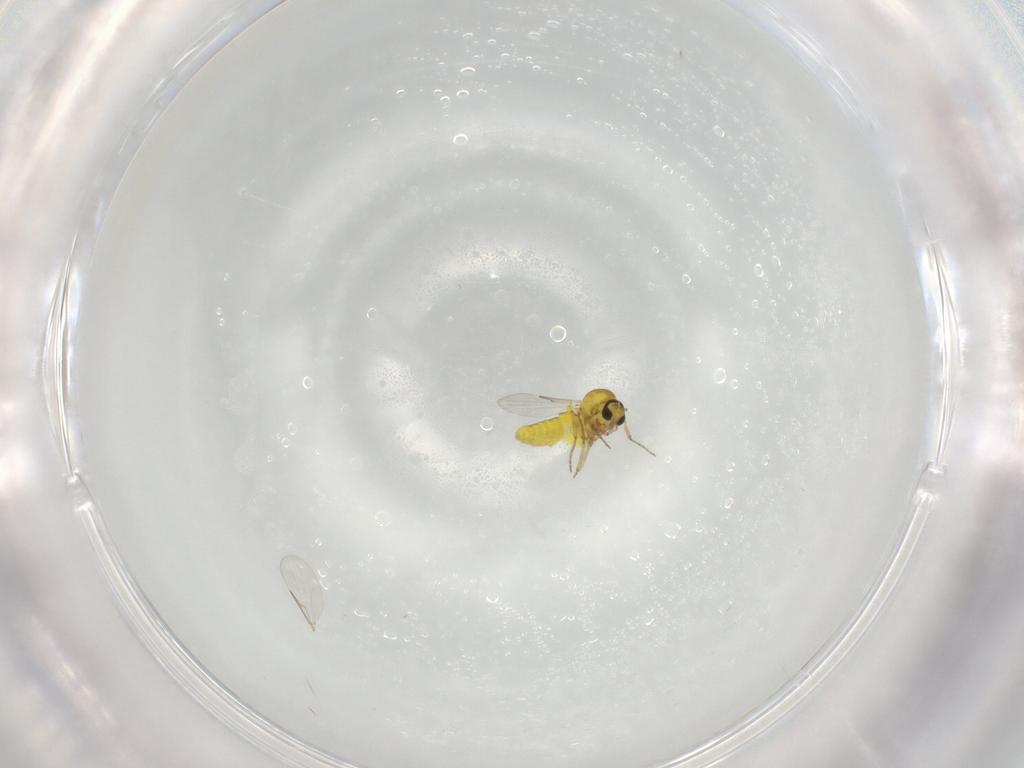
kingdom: Animalia
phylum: Arthropoda
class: Insecta
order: Diptera
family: Ceratopogonidae
